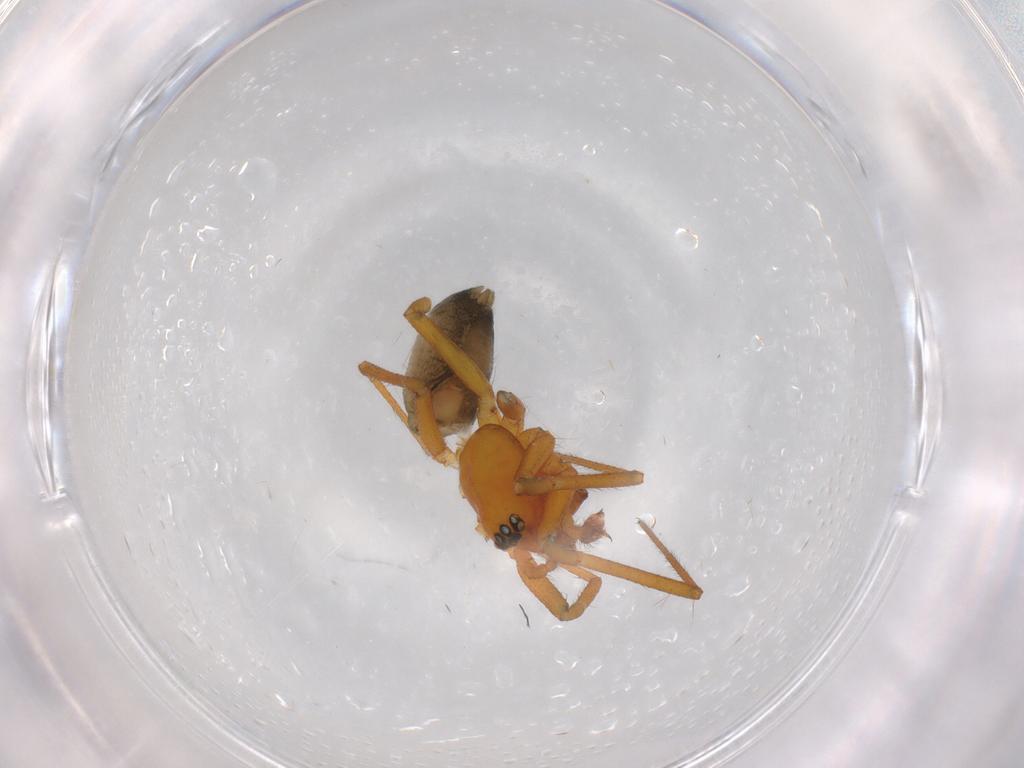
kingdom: Animalia
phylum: Arthropoda
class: Arachnida
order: Araneae
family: Linyphiidae
